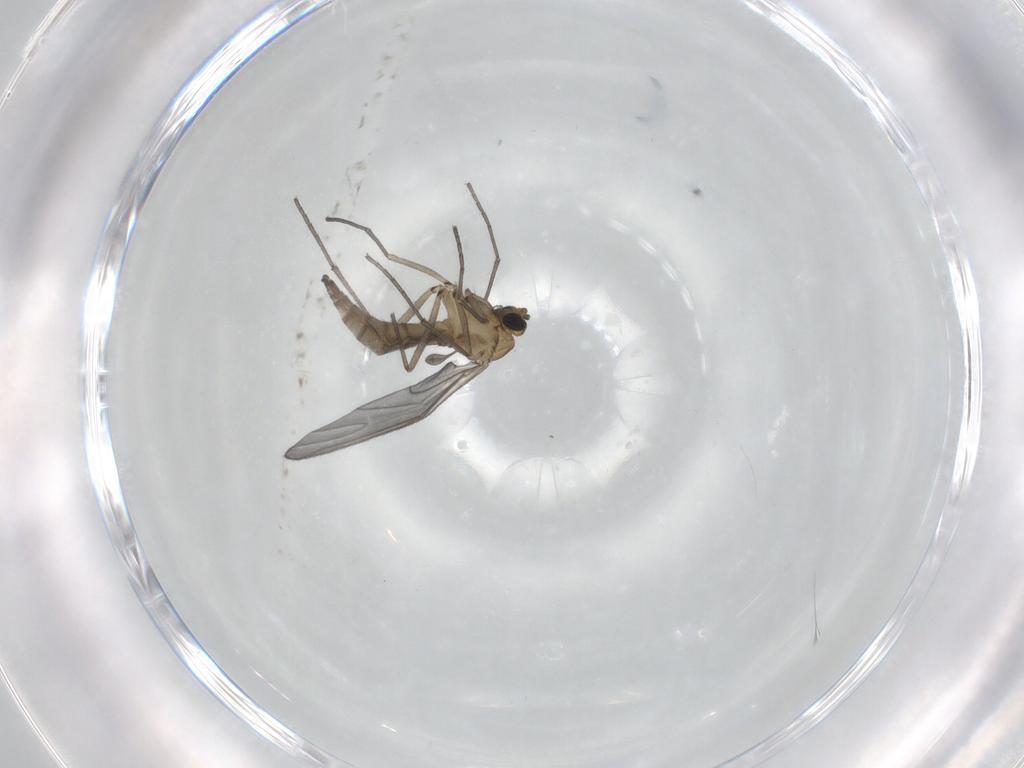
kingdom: Animalia
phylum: Arthropoda
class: Insecta
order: Diptera
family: Sciaridae
